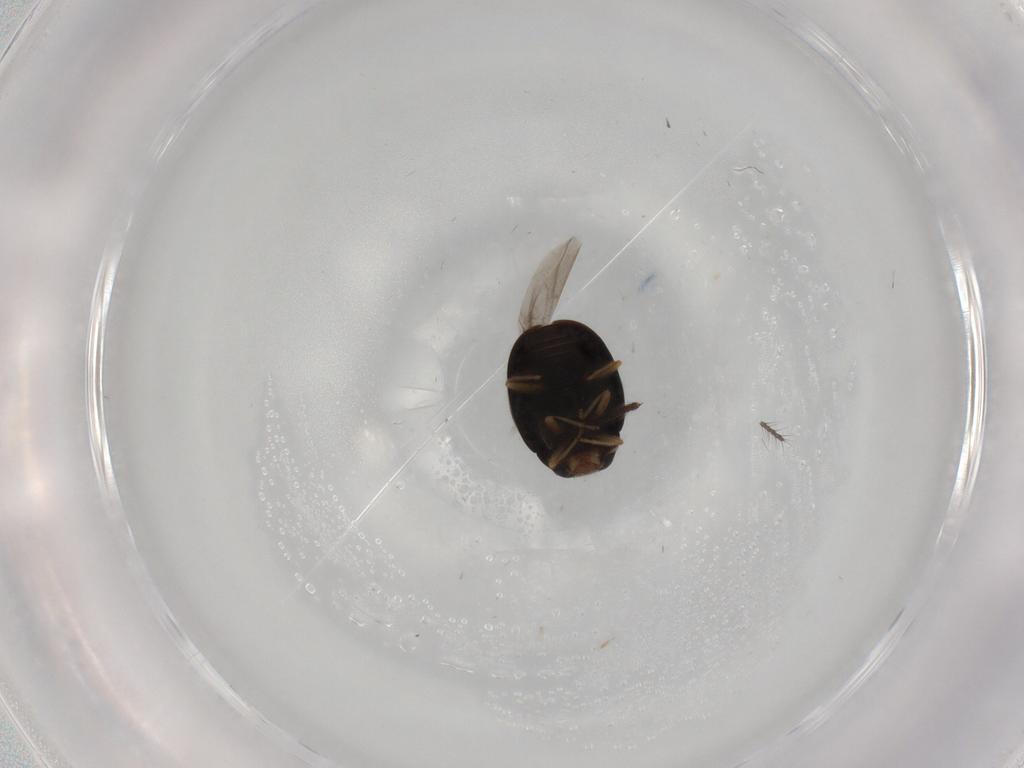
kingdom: Animalia
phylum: Arthropoda
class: Insecta
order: Coleoptera
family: Coccinellidae
